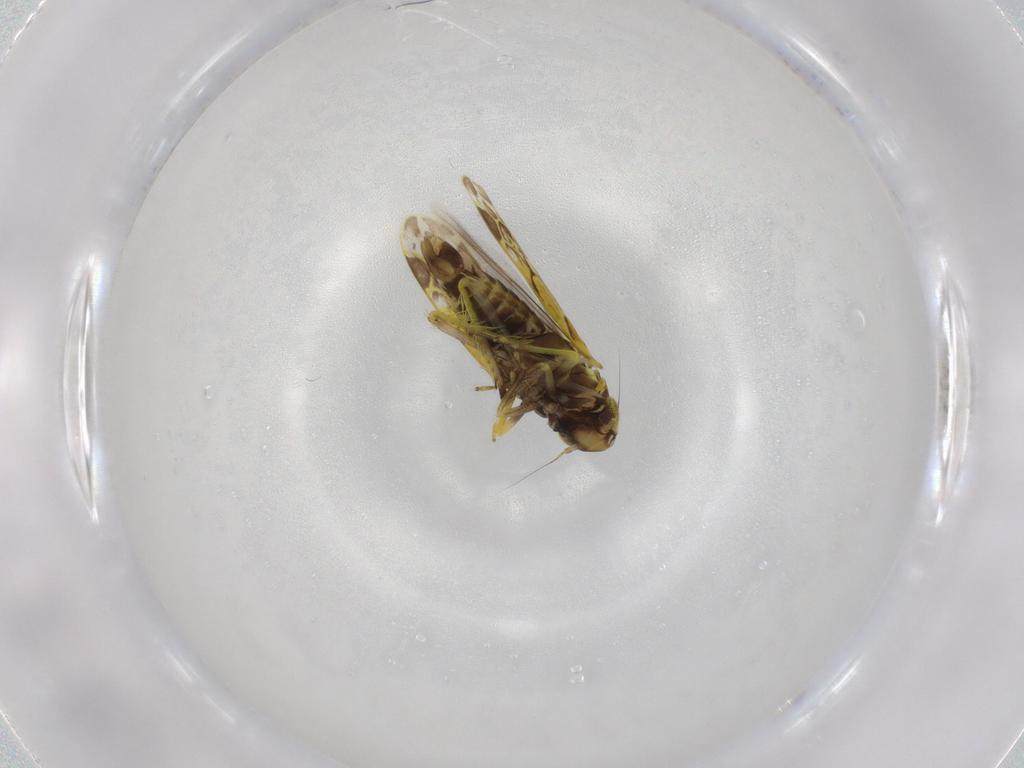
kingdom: Animalia
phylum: Arthropoda
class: Insecta
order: Hemiptera
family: Cicadellidae
